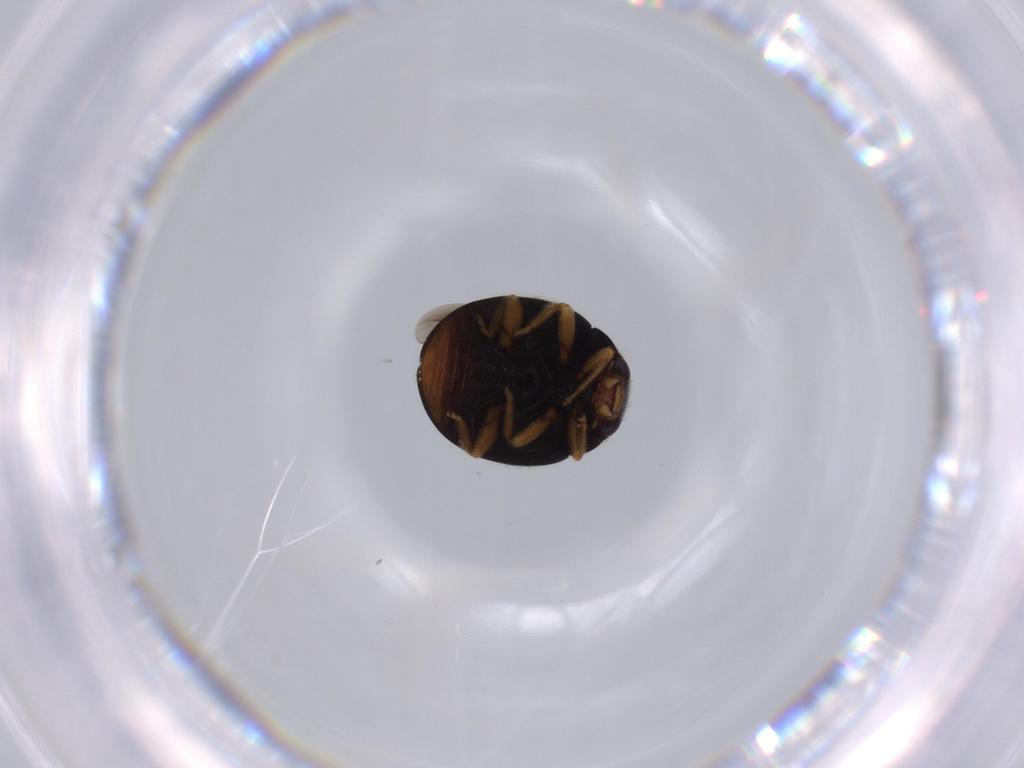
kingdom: Animalia
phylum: Arthropoda
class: Insecta
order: Coleoptera
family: Coccinellidae
